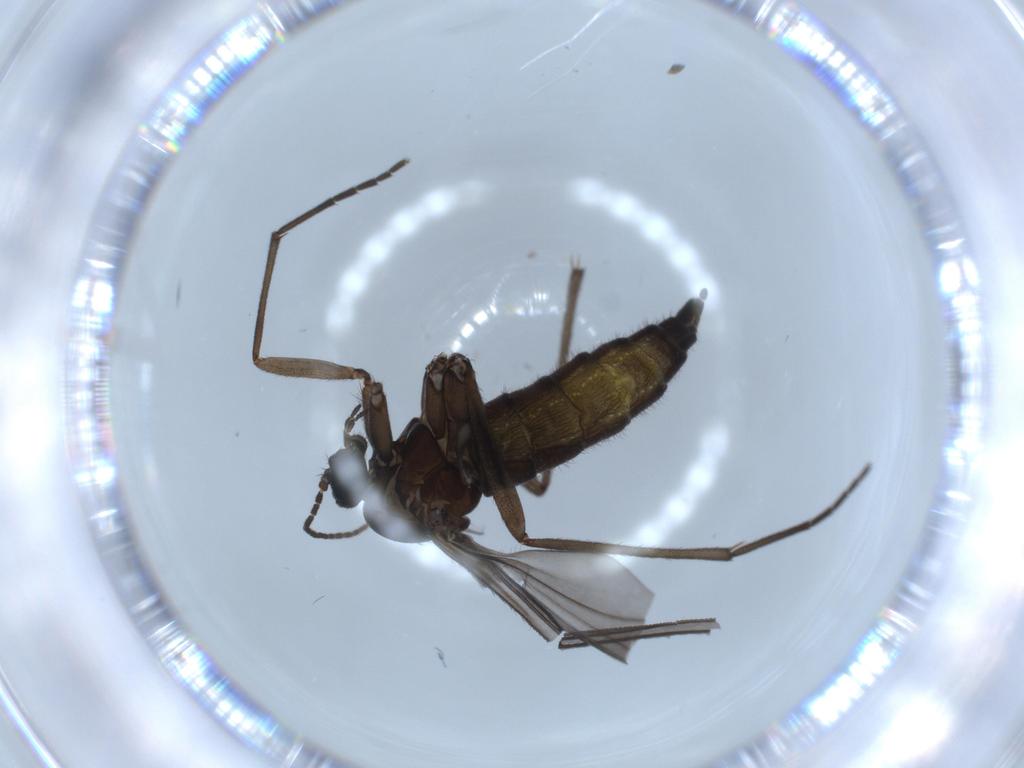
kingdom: Animalia
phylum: Arthropoda
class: Insecta
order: Diptera
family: Sciaridae
